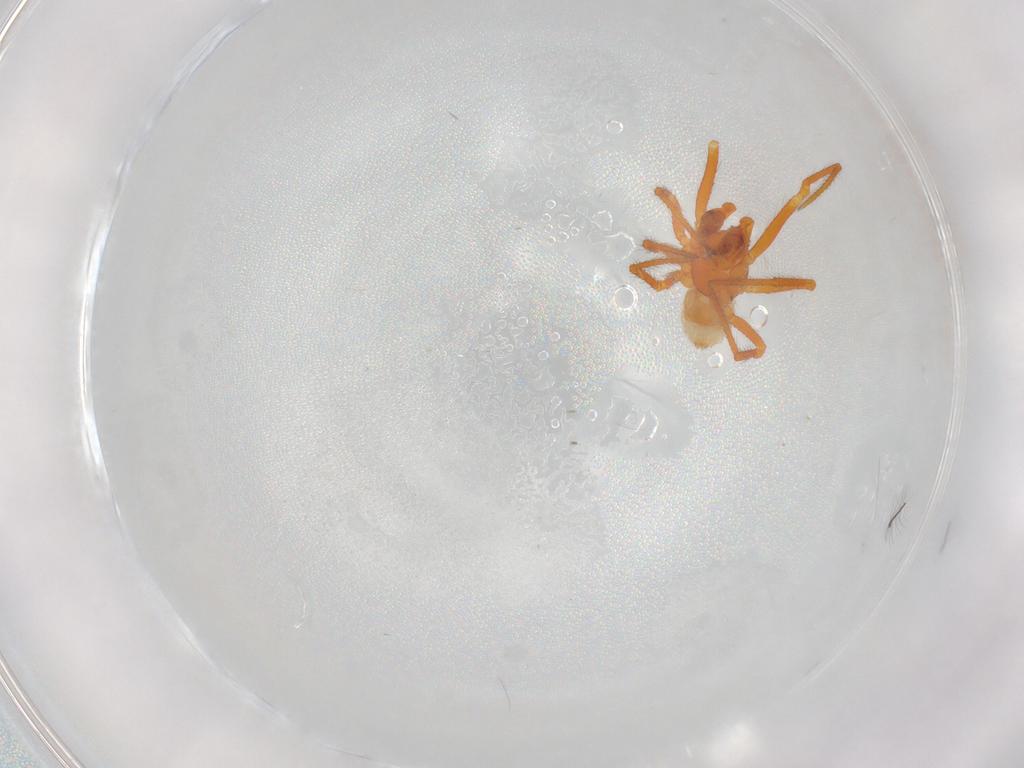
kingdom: Animalia
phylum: Arthropoda
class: Arachnida
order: Araneae
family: Theridiidae
